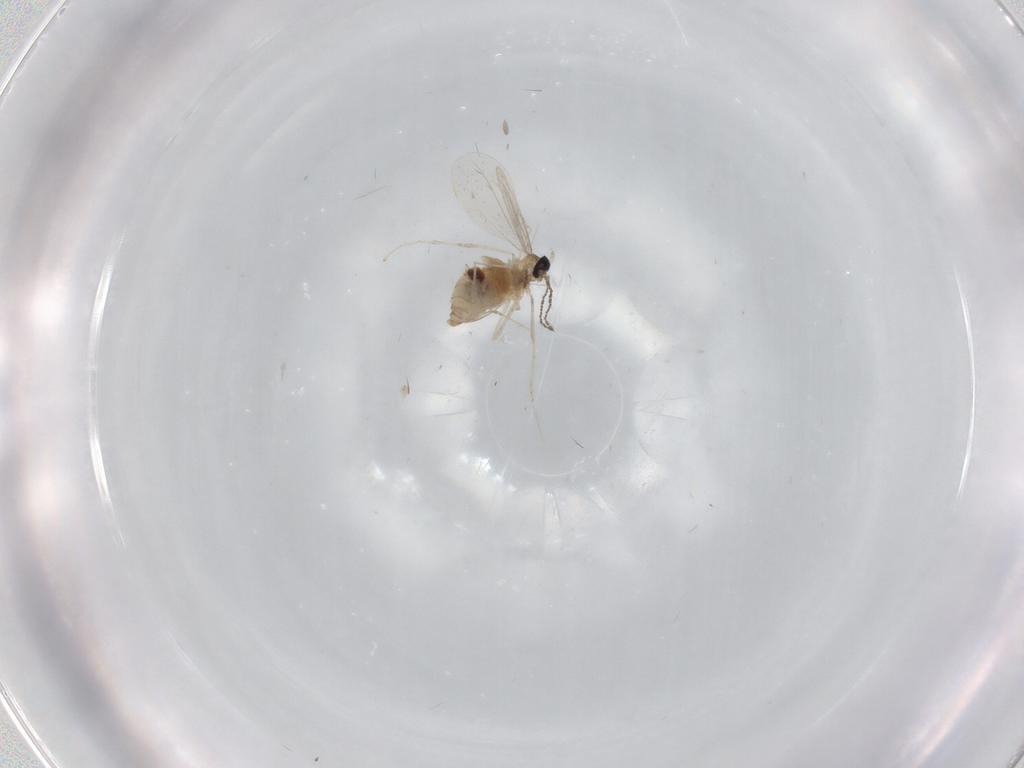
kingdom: Animalia
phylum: Arthropoda
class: Insecta
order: Diptera
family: Cecidomyiidae
